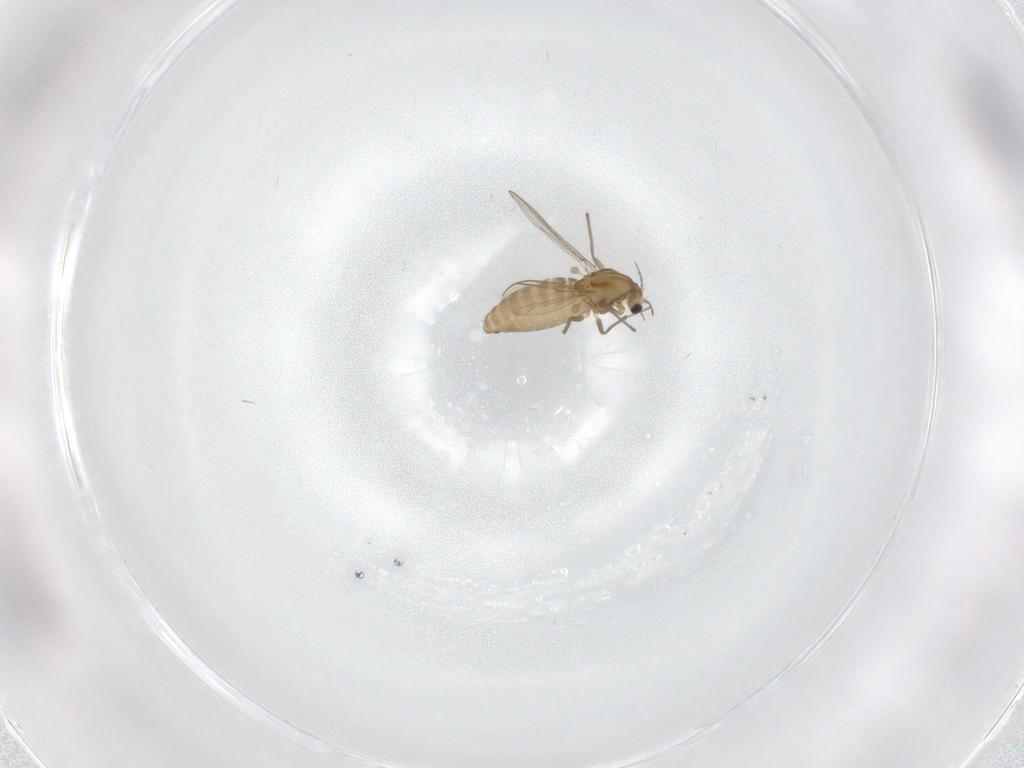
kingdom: Animalia
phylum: Arthropoda
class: Insecta
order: Diptera
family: Chironomidae
